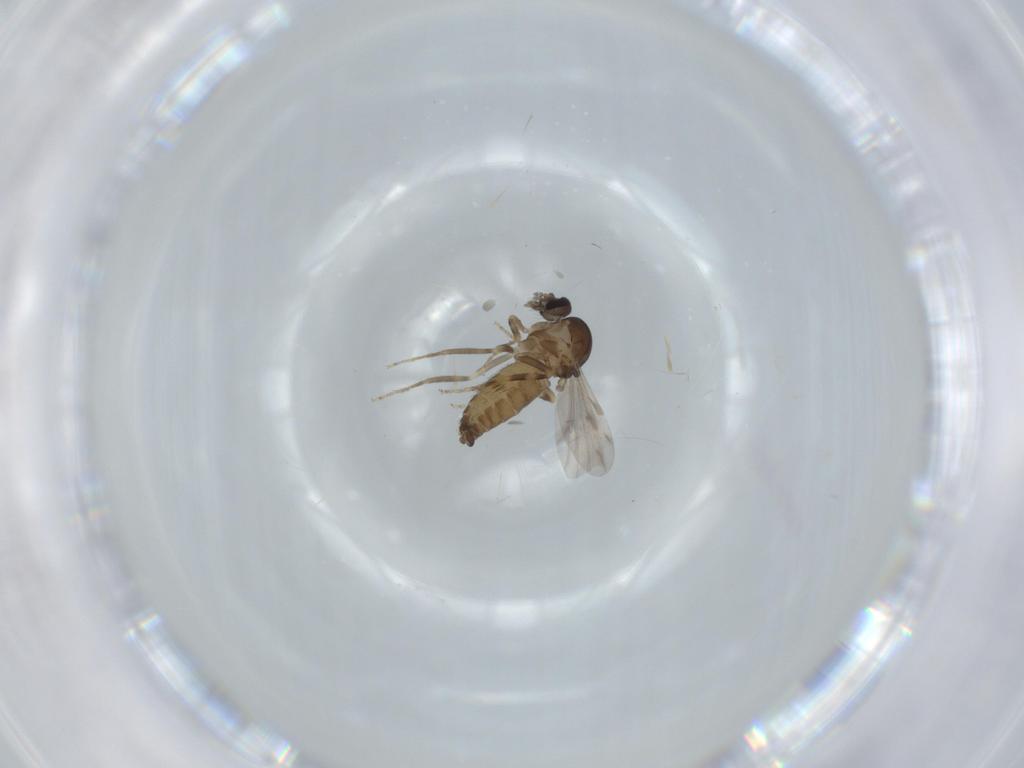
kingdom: Animalia
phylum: Arthropoda
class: Insecta
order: Diptera
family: Ceratopogonidae
